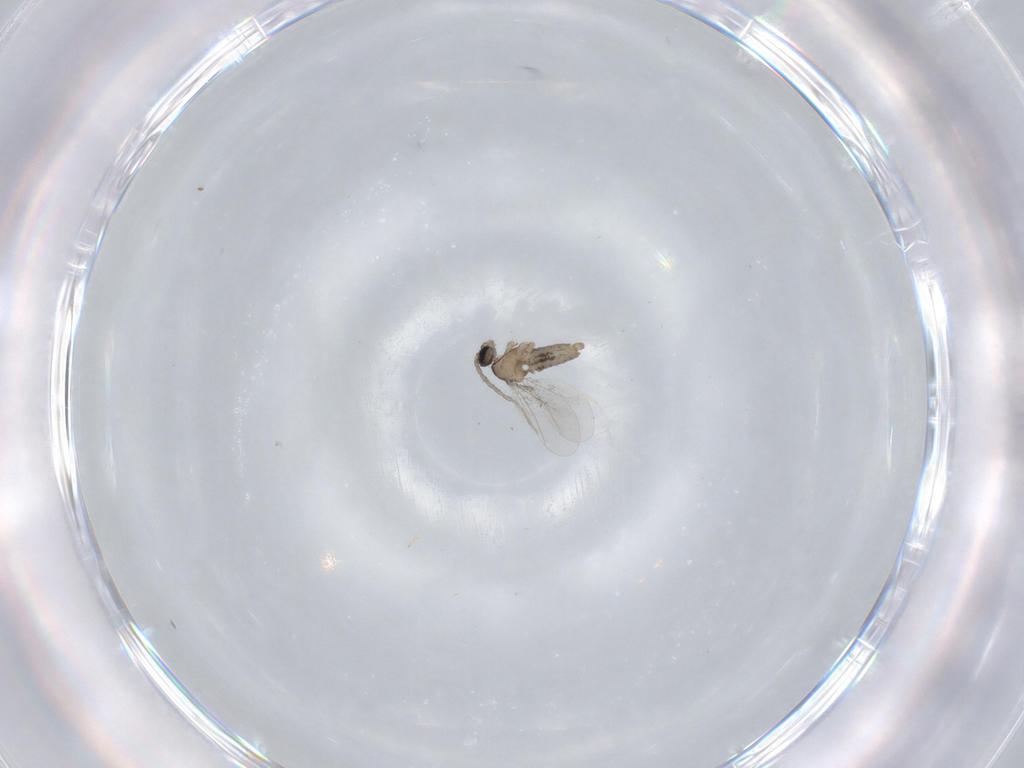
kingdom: Animalia
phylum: Arthropoda
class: Insecta
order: Diptera
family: Cecidomyiidae
